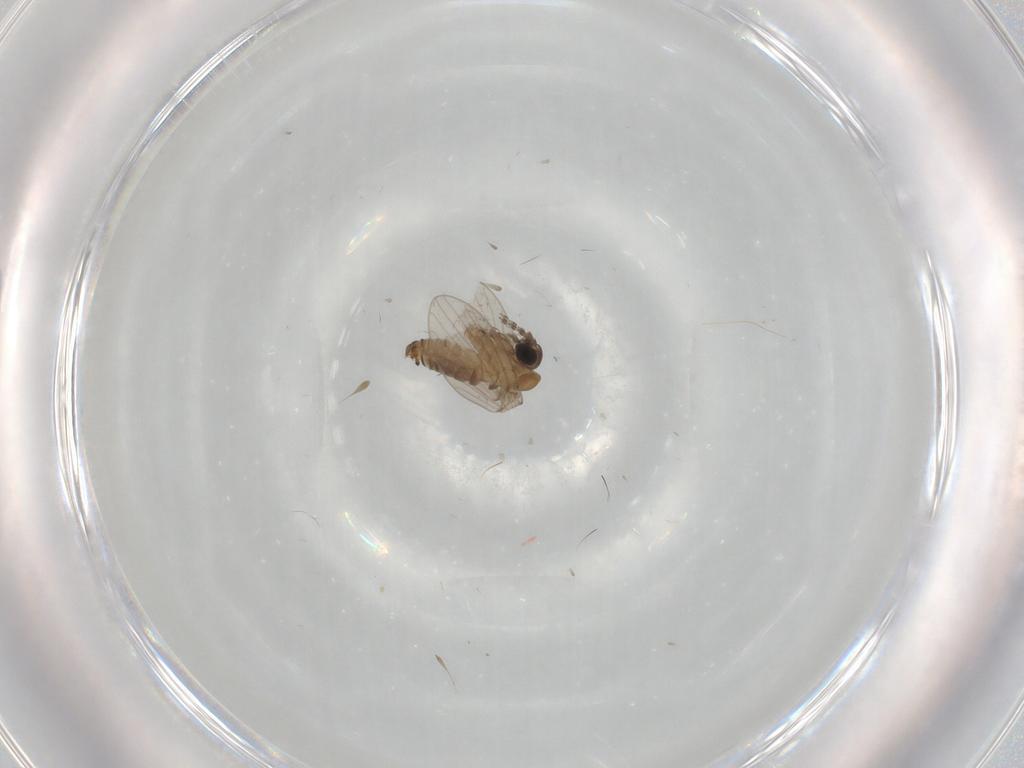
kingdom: Animalia
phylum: Arthropoda
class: Insecta
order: Diptera
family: Psychodidae
